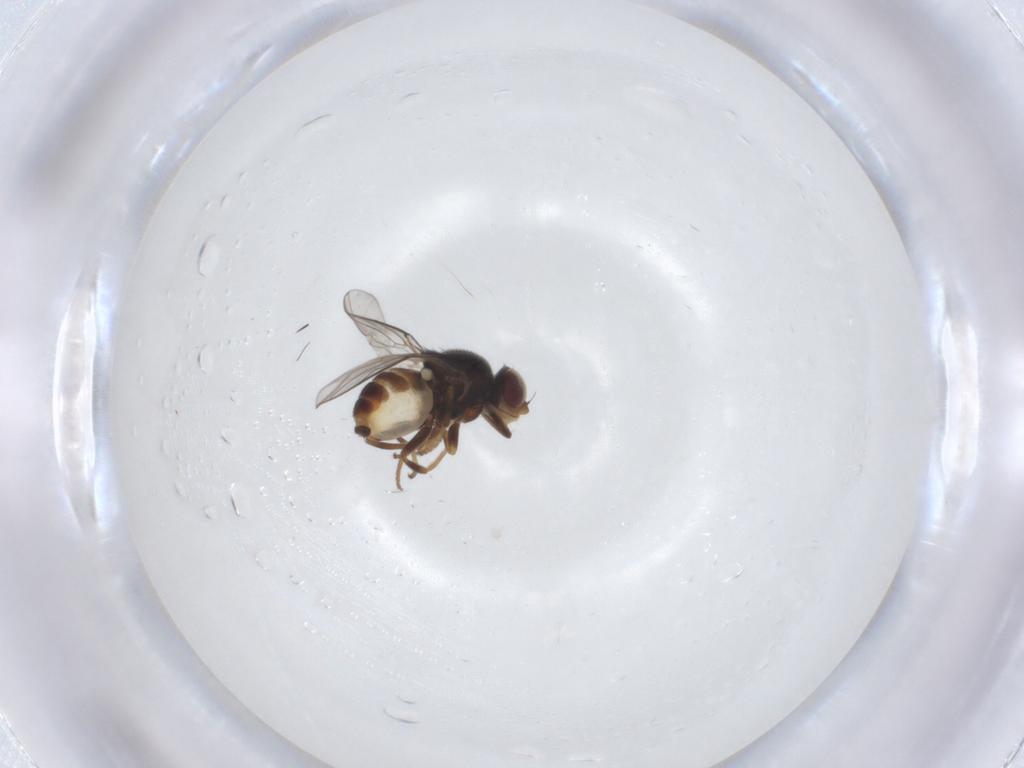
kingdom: Animalia
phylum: Arthropoda
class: Insecta
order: Diptera
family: Chloropidae
